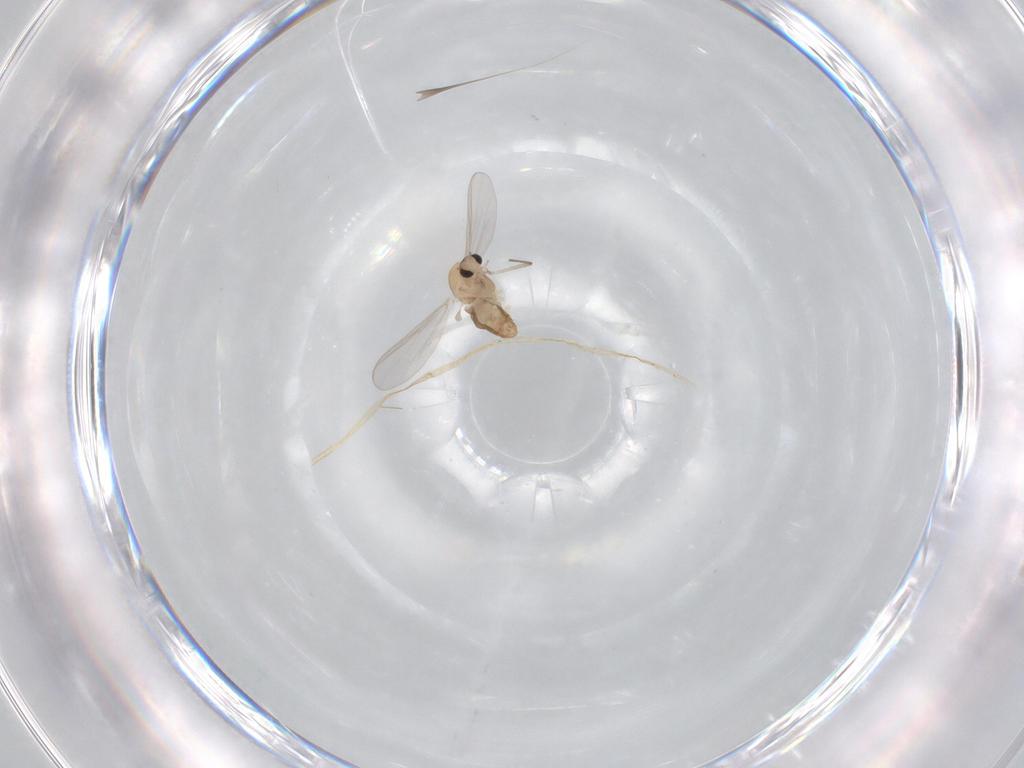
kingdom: Animalia
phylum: Arthropoda
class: Insecta
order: Diptera
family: Chironomidae
